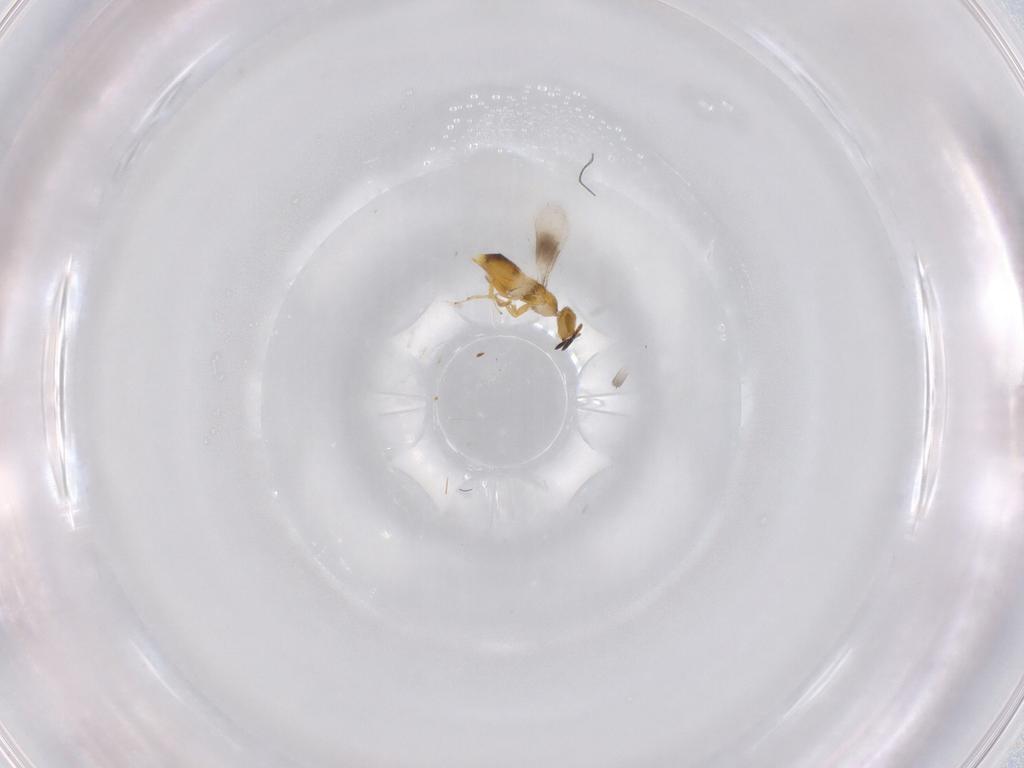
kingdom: Animalia
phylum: Arthropoda
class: Insecta
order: Hymenoptera
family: Encyrtidae
